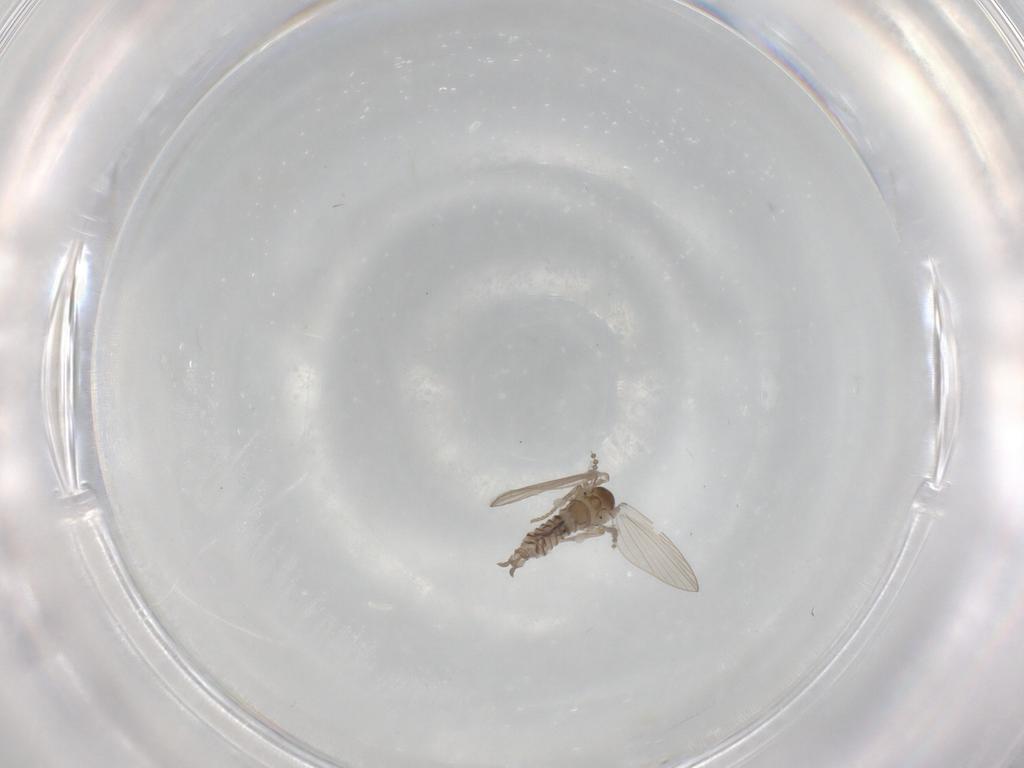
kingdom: Animalia
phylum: Arthropoda
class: Insecta
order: Diptera
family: Psychodidae
